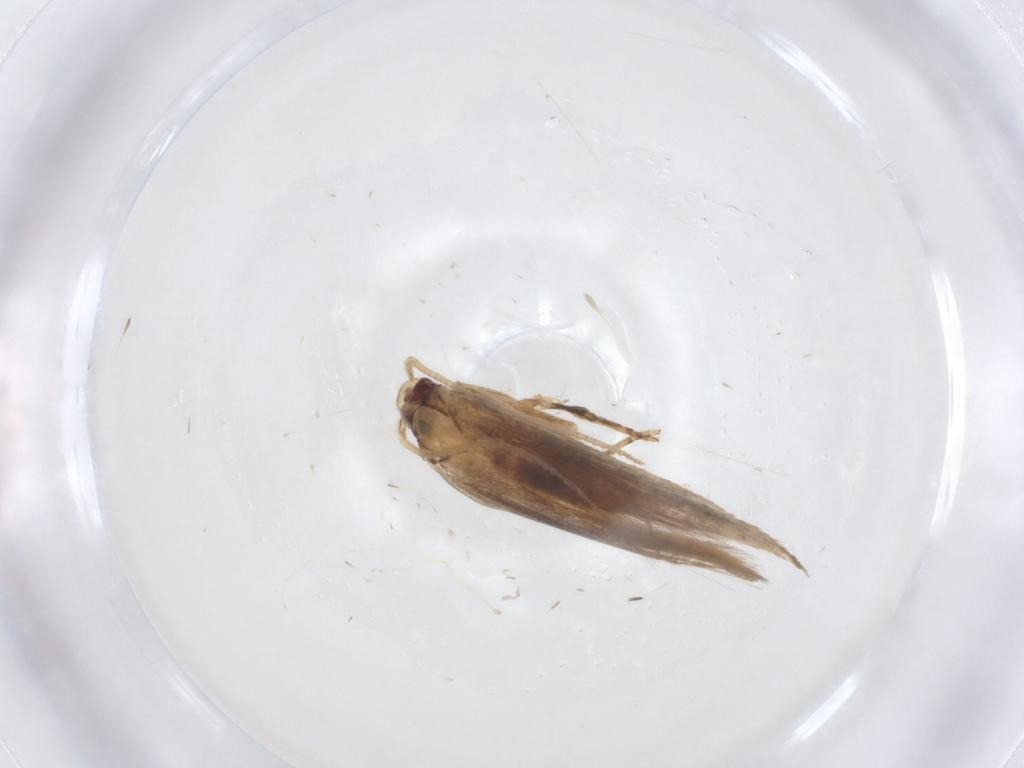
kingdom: Animalia
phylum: Arthropoda
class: Insecta
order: Lepidoptera
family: Cosmopterigidae
